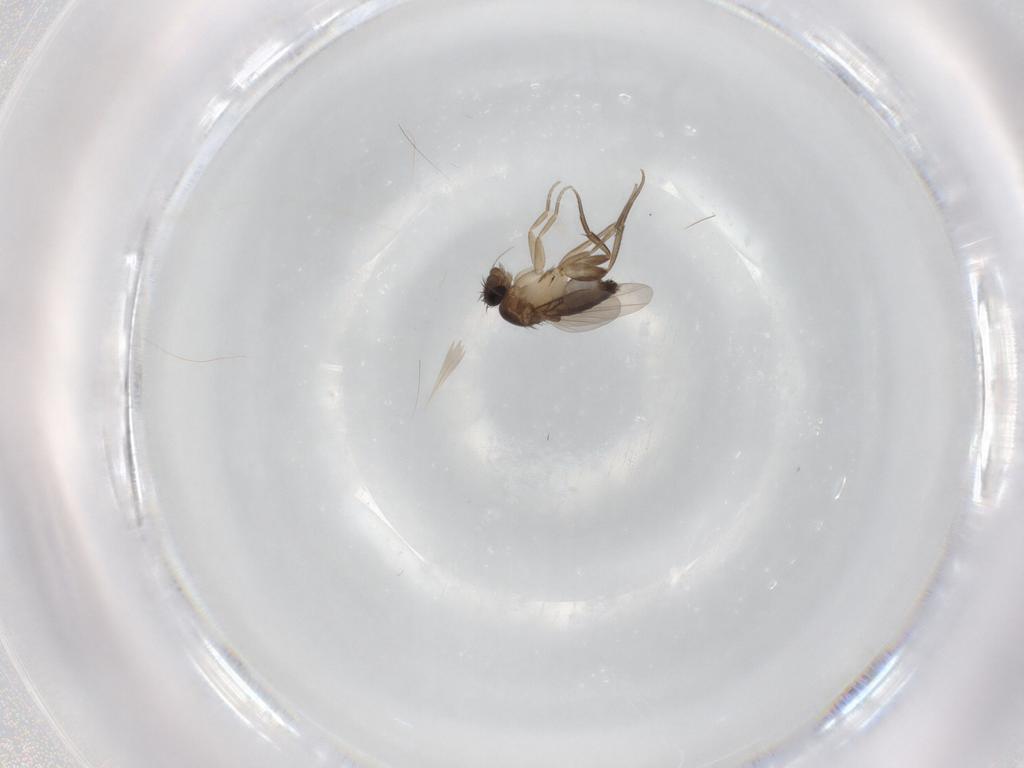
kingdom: Animalia
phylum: Arthropoda
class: Insecta
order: Diptera
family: Phoridae
